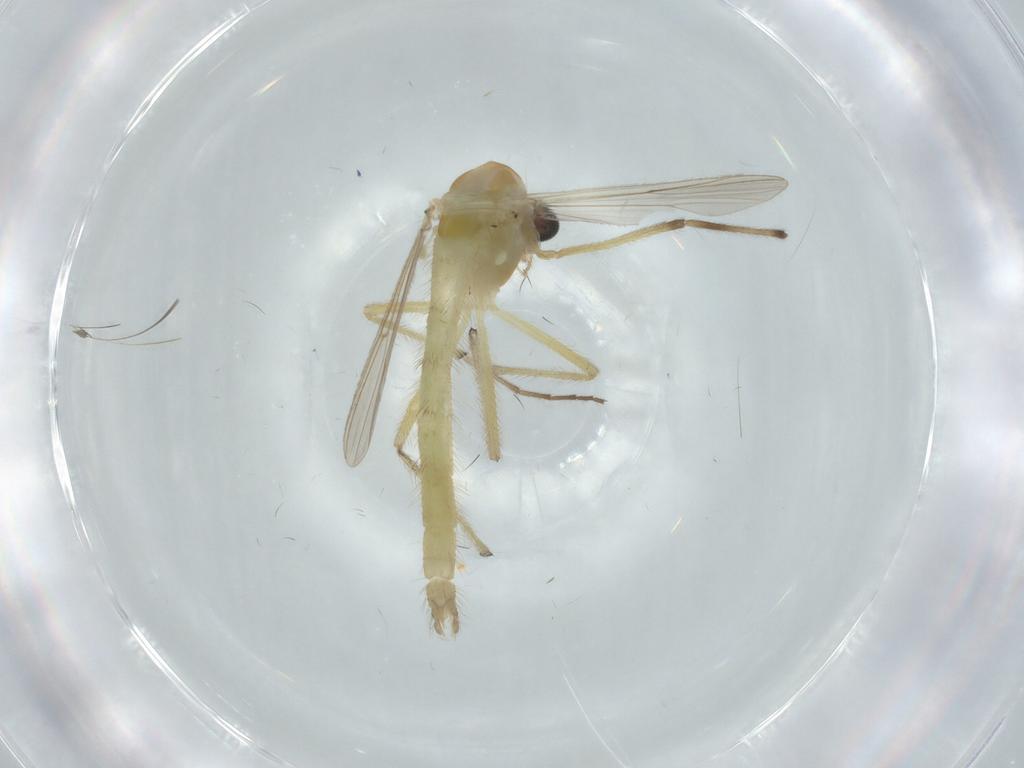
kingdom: Animalia
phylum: Arthropoda
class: Insecta
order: Diptera
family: Chironomidae
